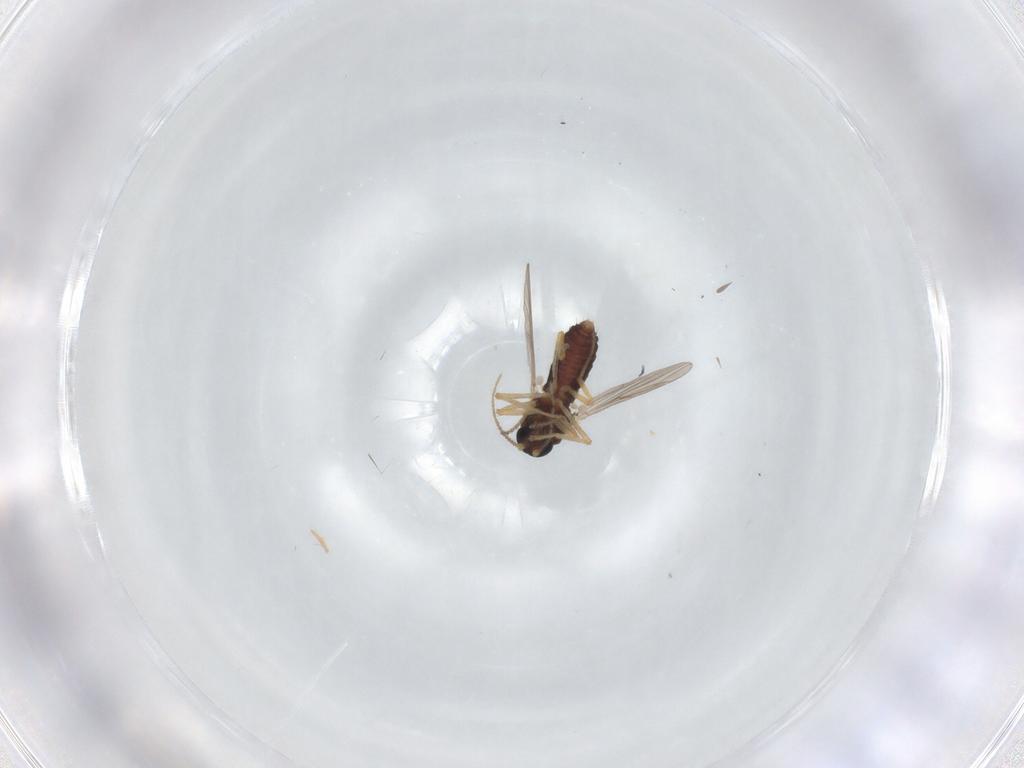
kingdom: Animalia
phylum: Arthropoda
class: Insecta
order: Diptera
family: Ceratopogonidae
